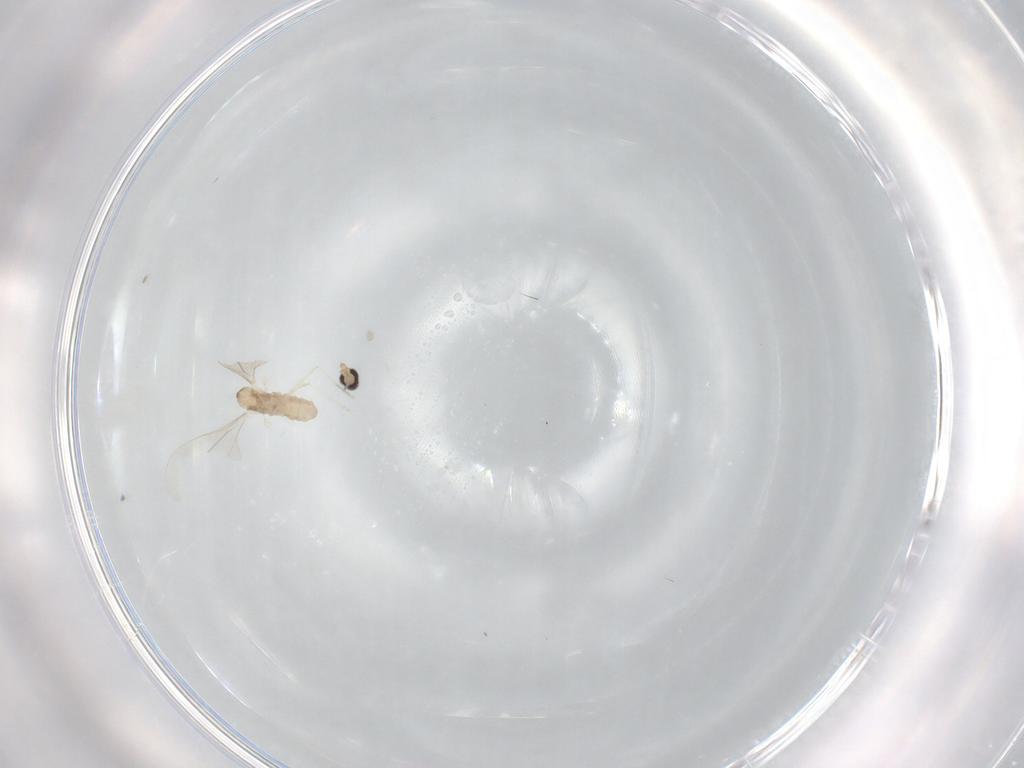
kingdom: Animalia
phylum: Arthropoda
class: Insecta
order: Diptera
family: Cecidomyiidae
